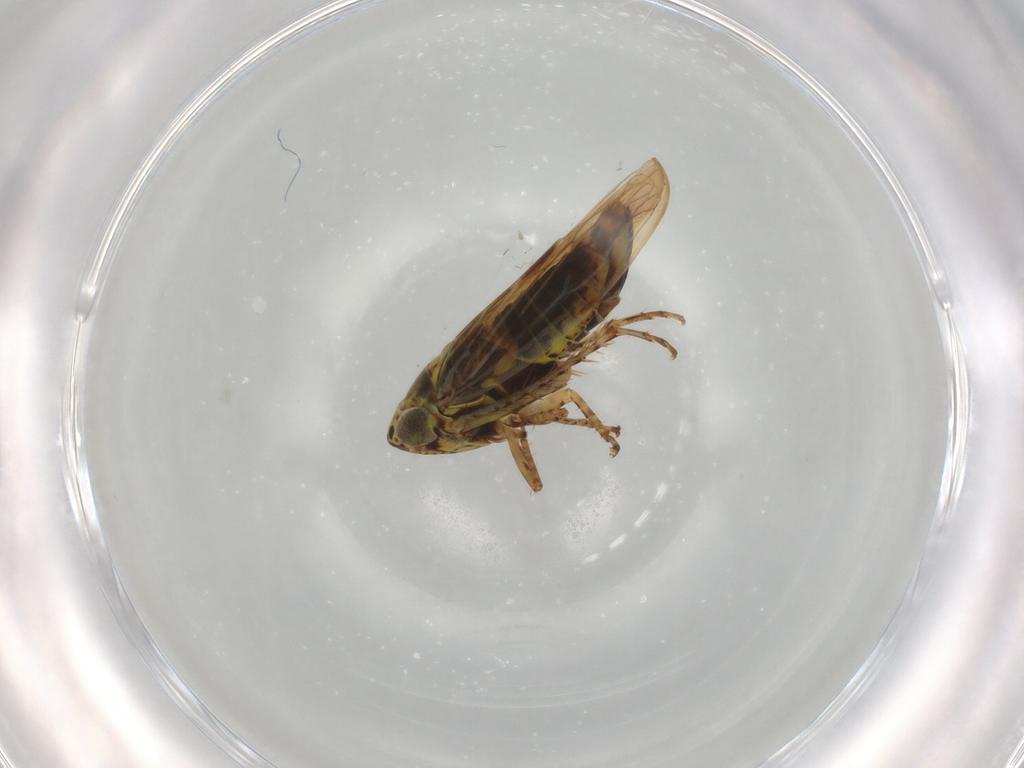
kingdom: Animalia
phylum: Arthropoda
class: Insecta
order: Hemiptera
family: Cicadellidae
